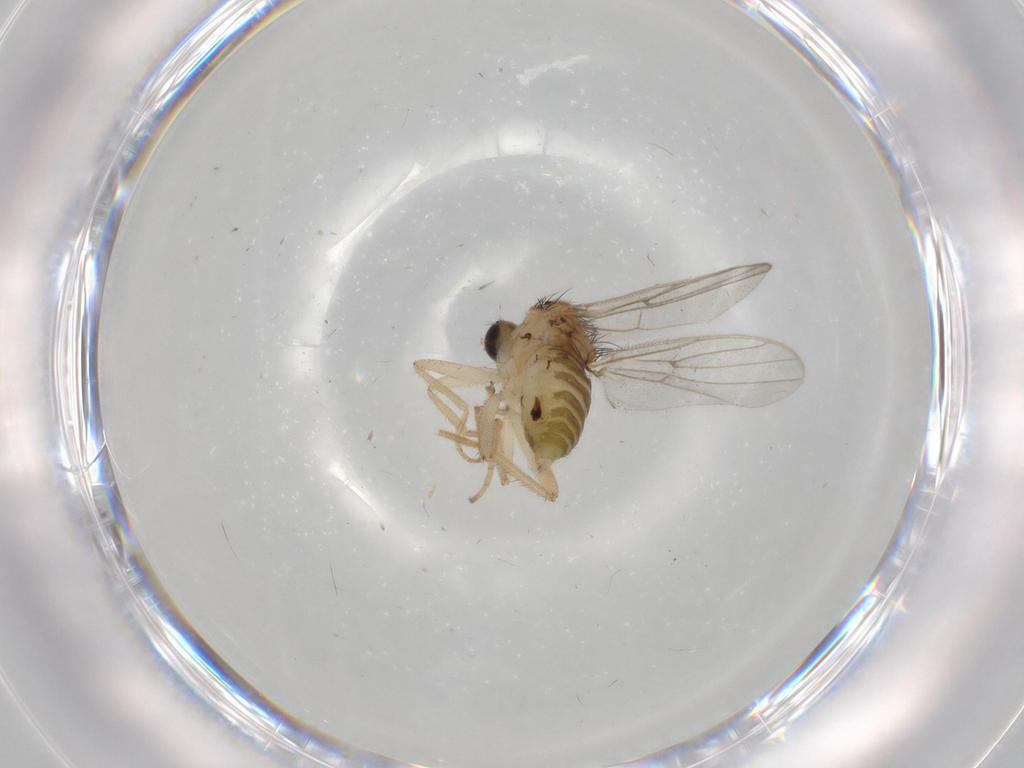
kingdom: Animalia
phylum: Arthropoda
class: Insecta
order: Diptera
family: Hybotidae
